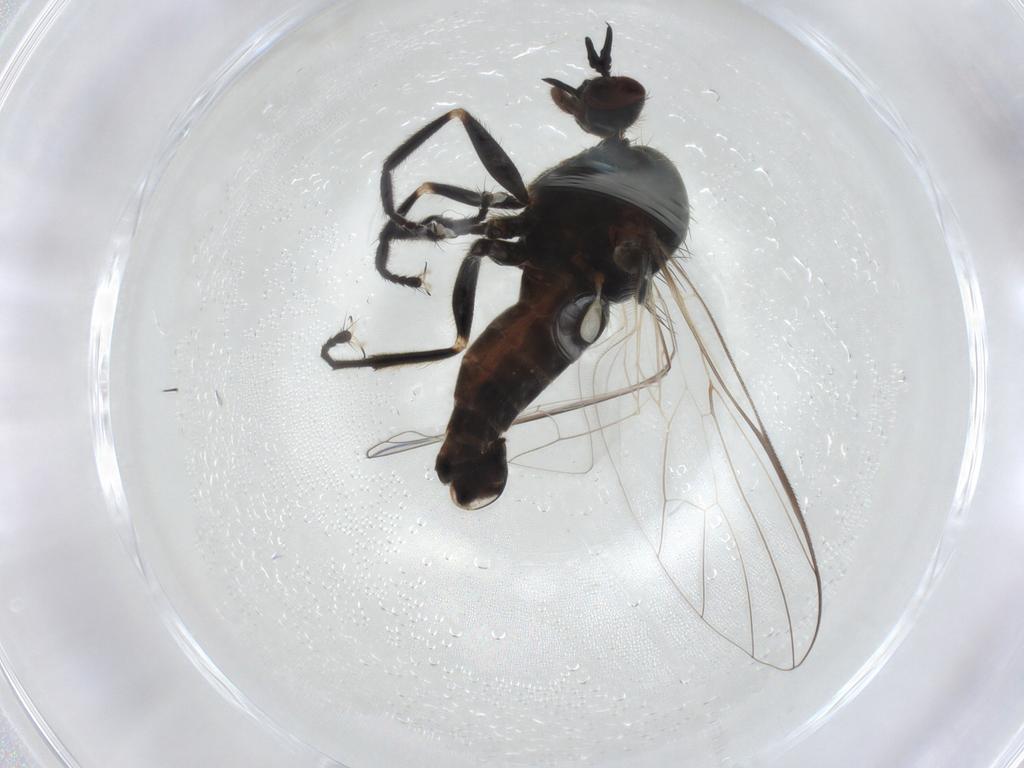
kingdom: Animalia
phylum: Arthropoda
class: Insecta
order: Diptera
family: Empididae
